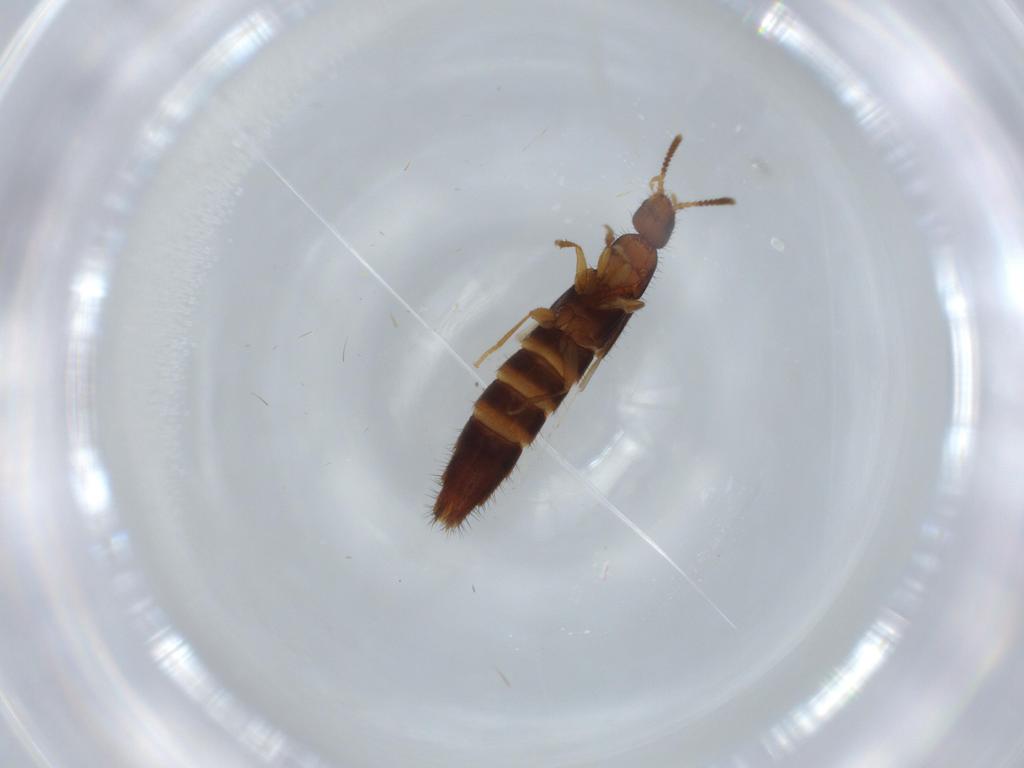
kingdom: Animalia
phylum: Arthropoda
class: Insecta
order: Coleoptera
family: Staphylinidae
